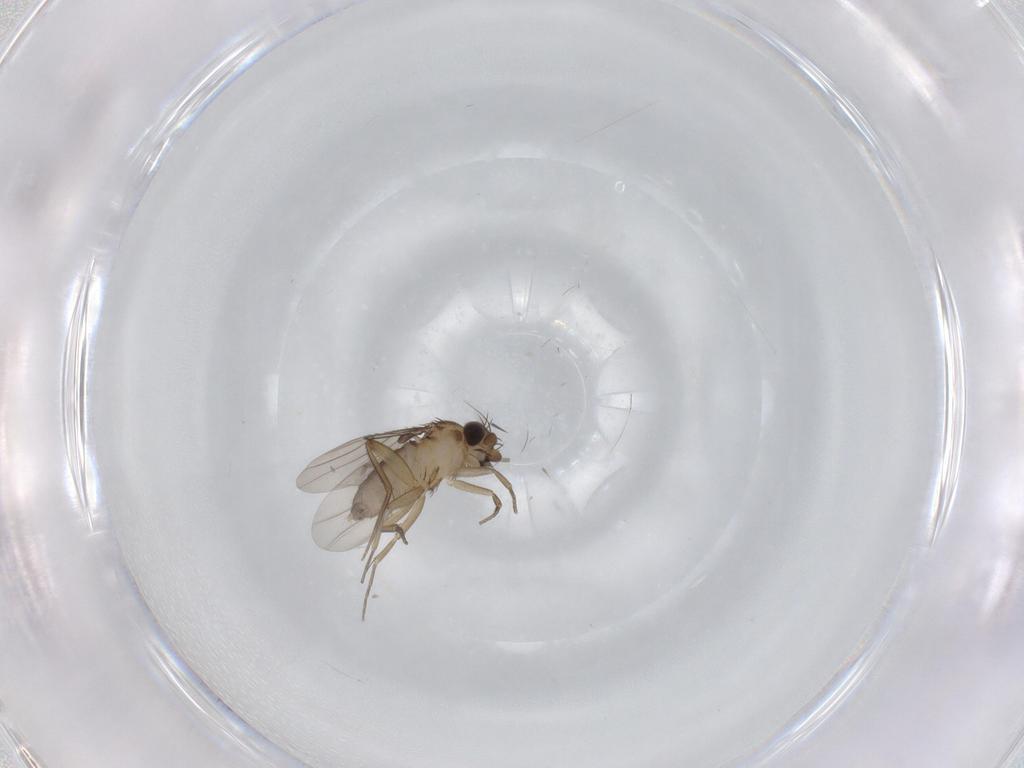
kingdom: Animalia
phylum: Arthropoda
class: Insecta
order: Diptera
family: Phoridae
